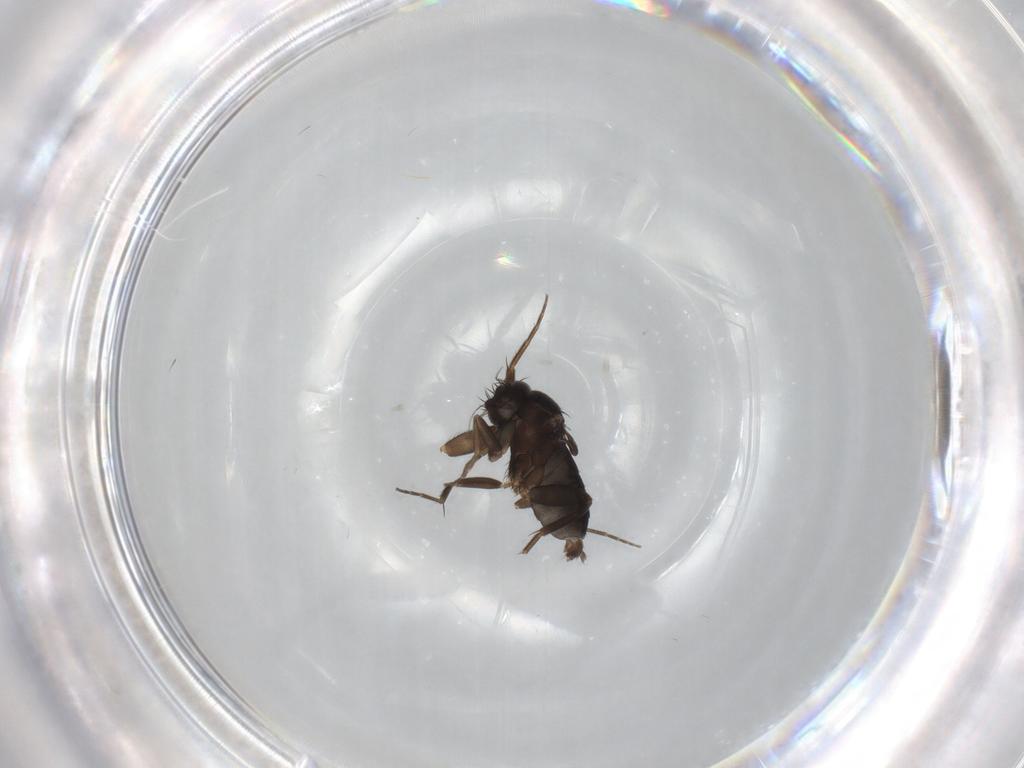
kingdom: Animalia
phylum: Arthropoda
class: Insecta
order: Diptera
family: Phoridae
